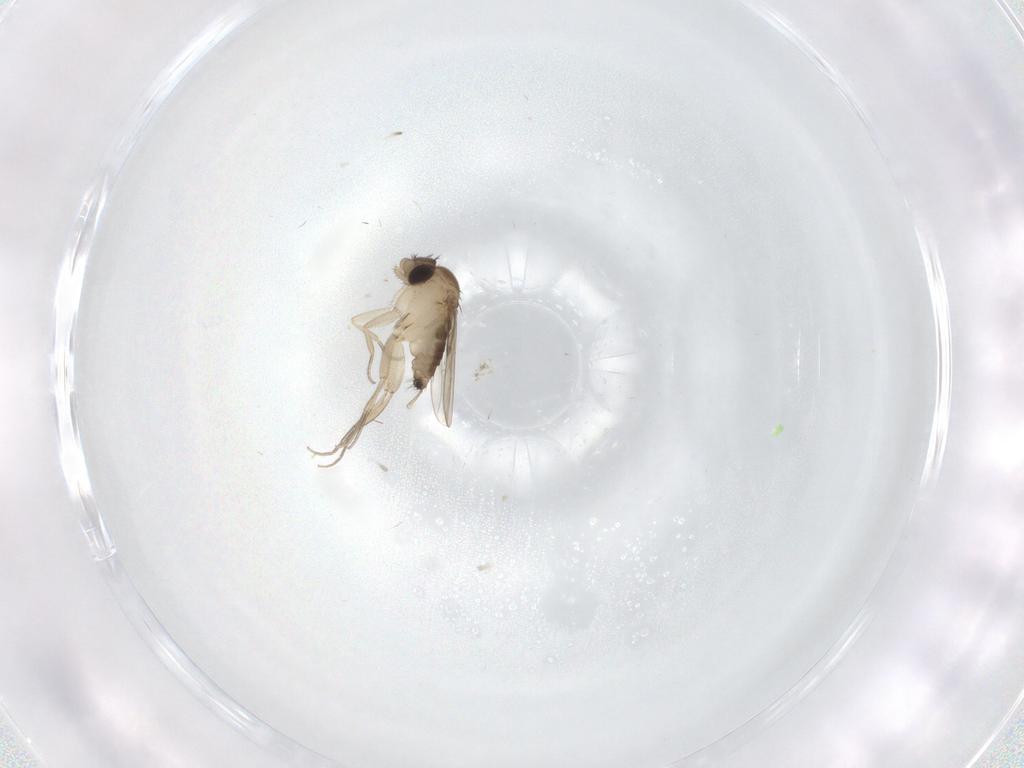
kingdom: Animalia
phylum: Arthropoda
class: Insecta
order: Diptera
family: Phoridae
